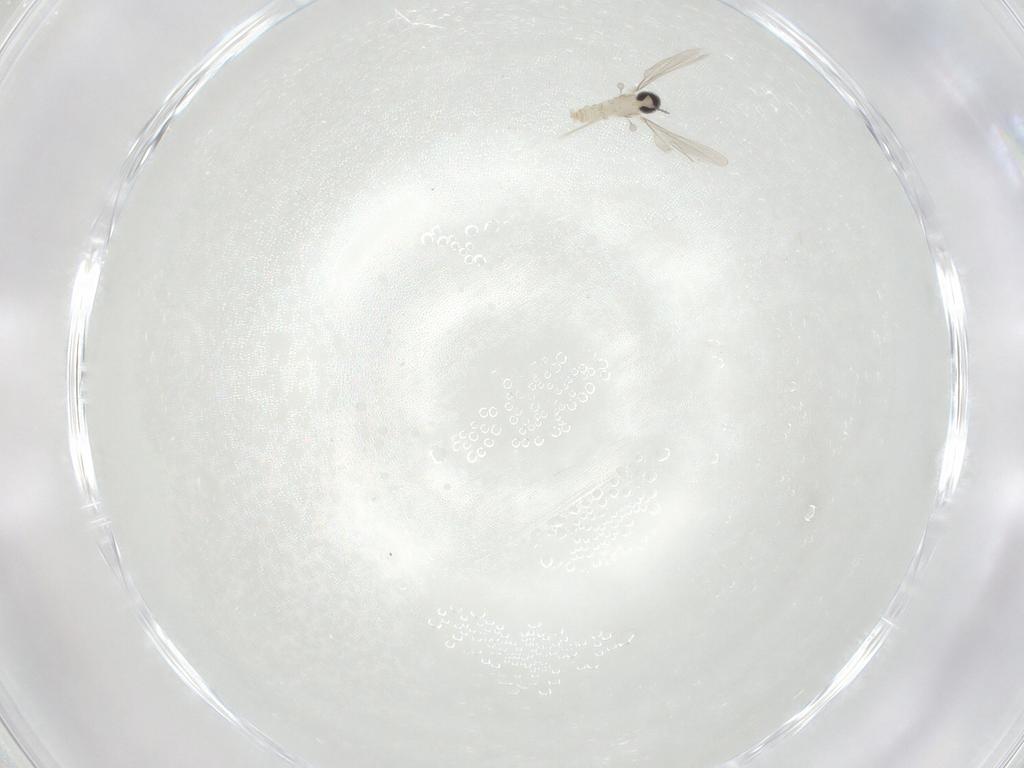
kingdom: Animalia
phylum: Arthropoda
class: Insecta
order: Diptera
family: Cecidomyiidae
